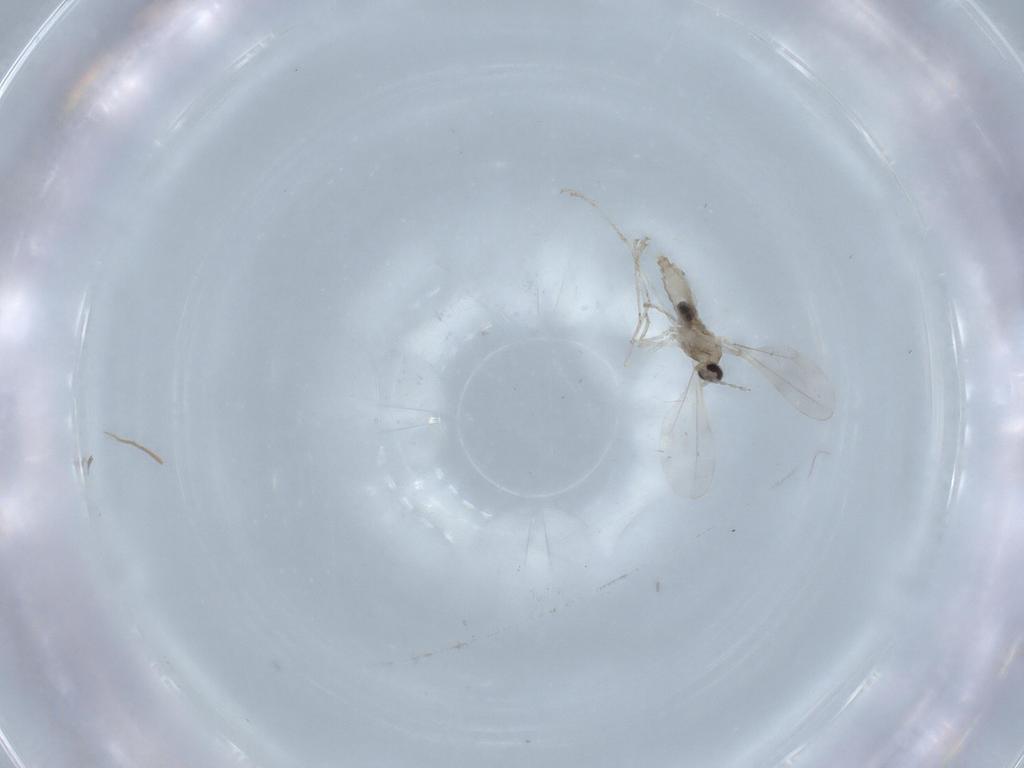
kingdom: Animalia
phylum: Arthropoda
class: Insecta
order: Diptera
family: Phoridae
